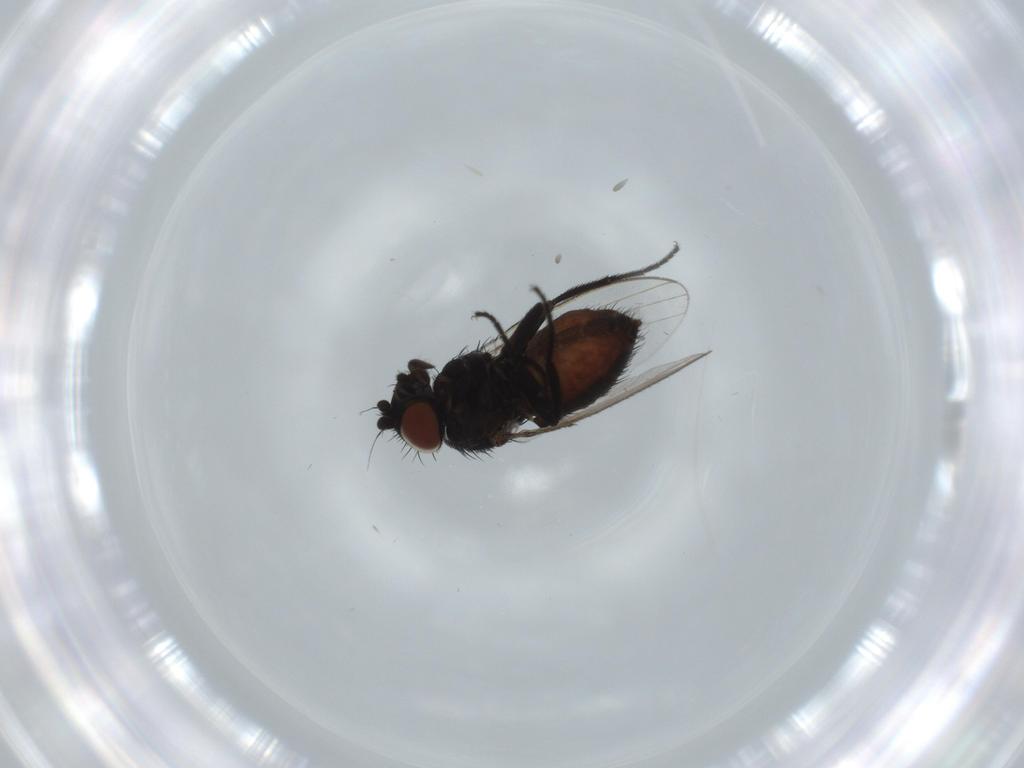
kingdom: Animalia
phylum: Arthropoda
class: Insecta
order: Diptera
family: Milichiidae
